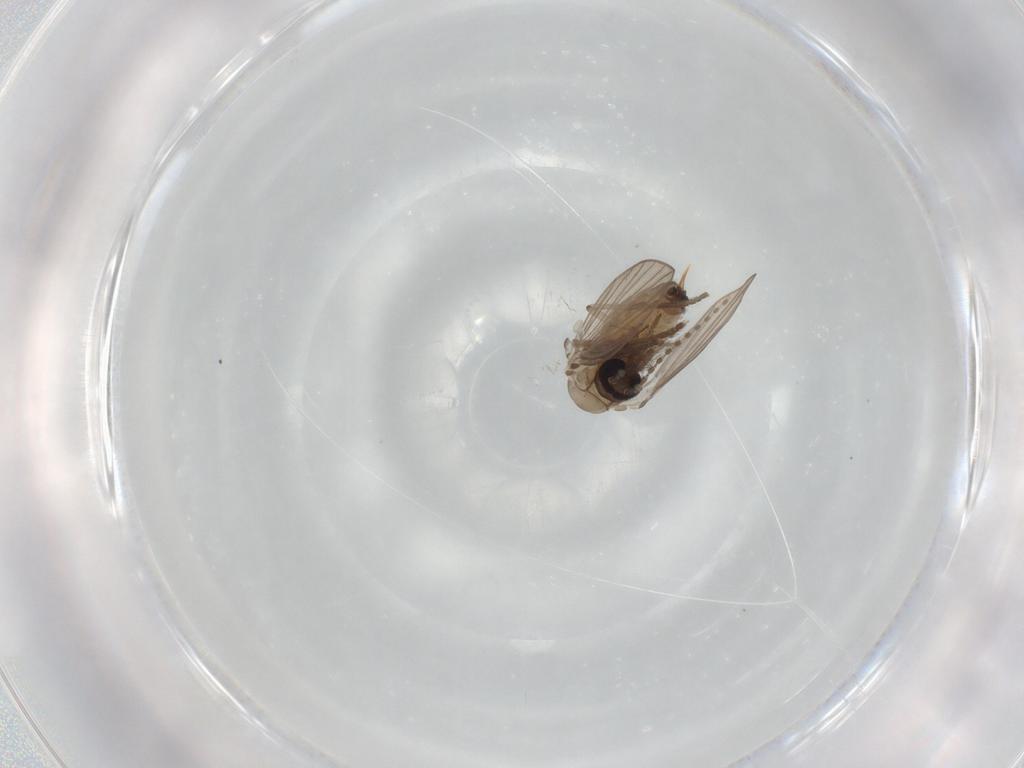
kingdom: Animalia
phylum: Arthropoda
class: Insecta
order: Diptera
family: Psychodidae
